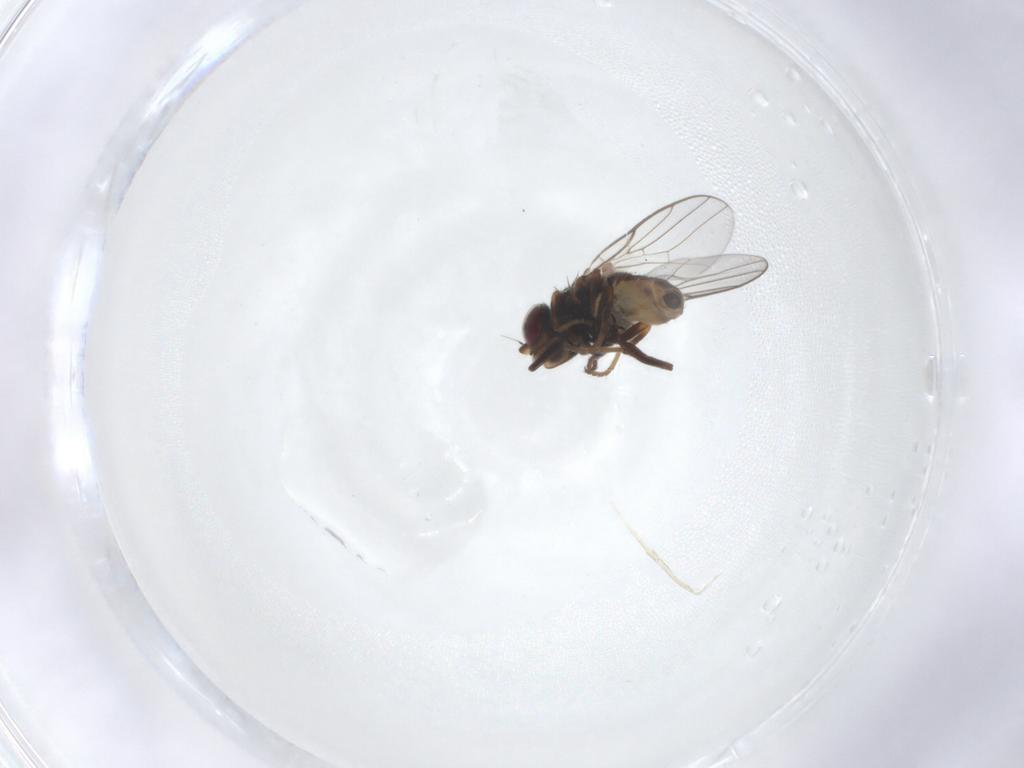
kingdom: Animalia
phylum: Arthropoda
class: Insecta
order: Diptera
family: Chloropidae
